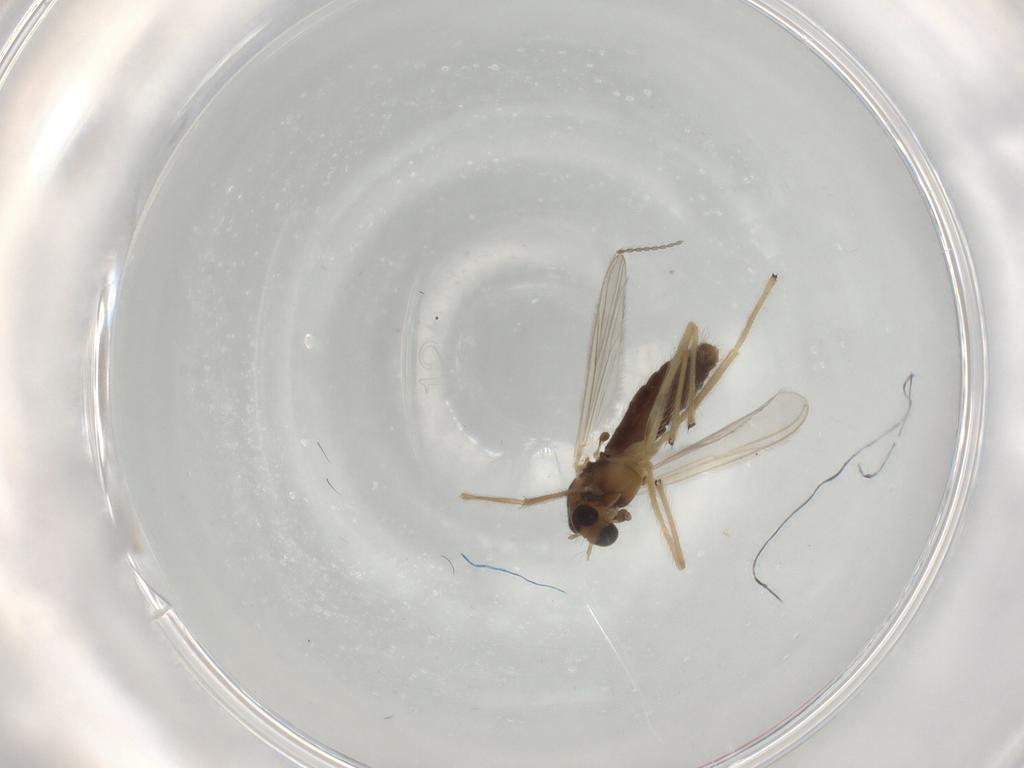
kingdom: Animalia
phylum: Arthropoda
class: Insecta
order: Diptera
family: Chironomidae
